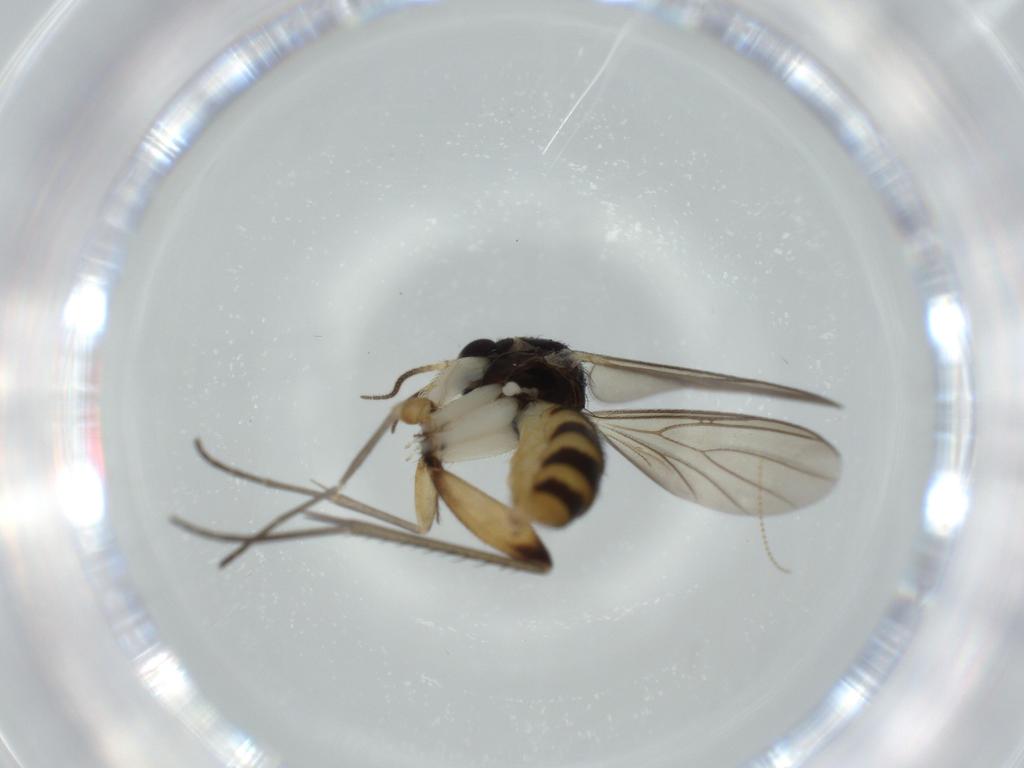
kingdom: Animalia
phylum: Arthropoda
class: Insecta
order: Diptera
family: Mycetophilidae
